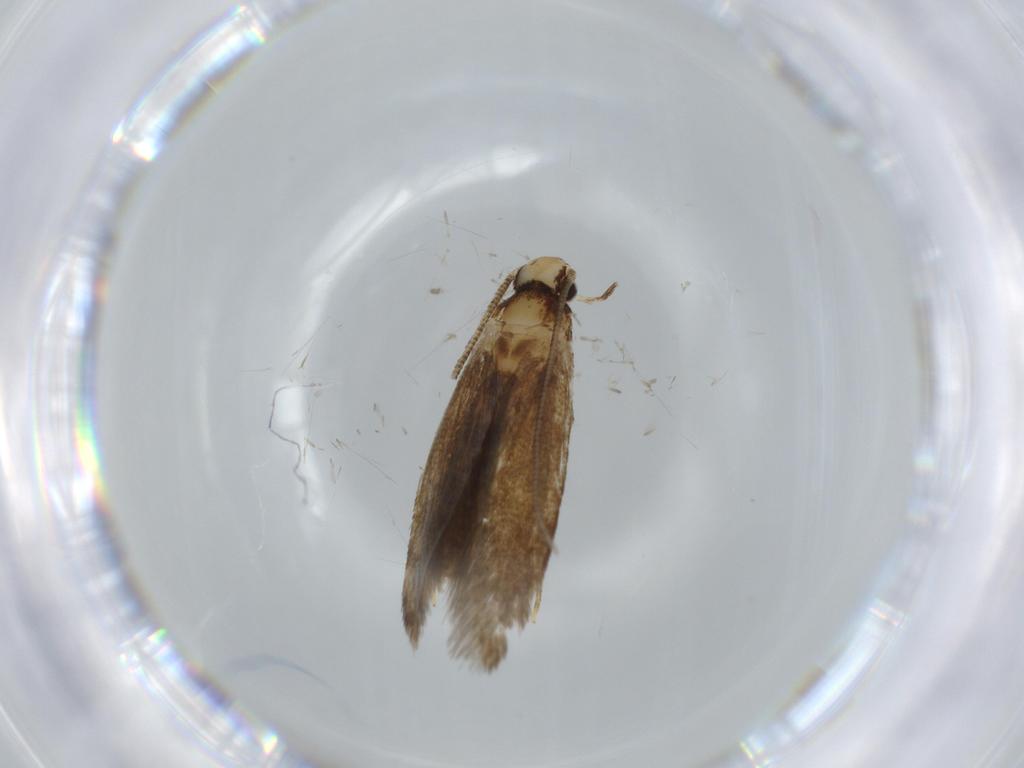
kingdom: Animalia
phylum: Arthropoda
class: Insecta
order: Lepidoptera
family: Tineidae
